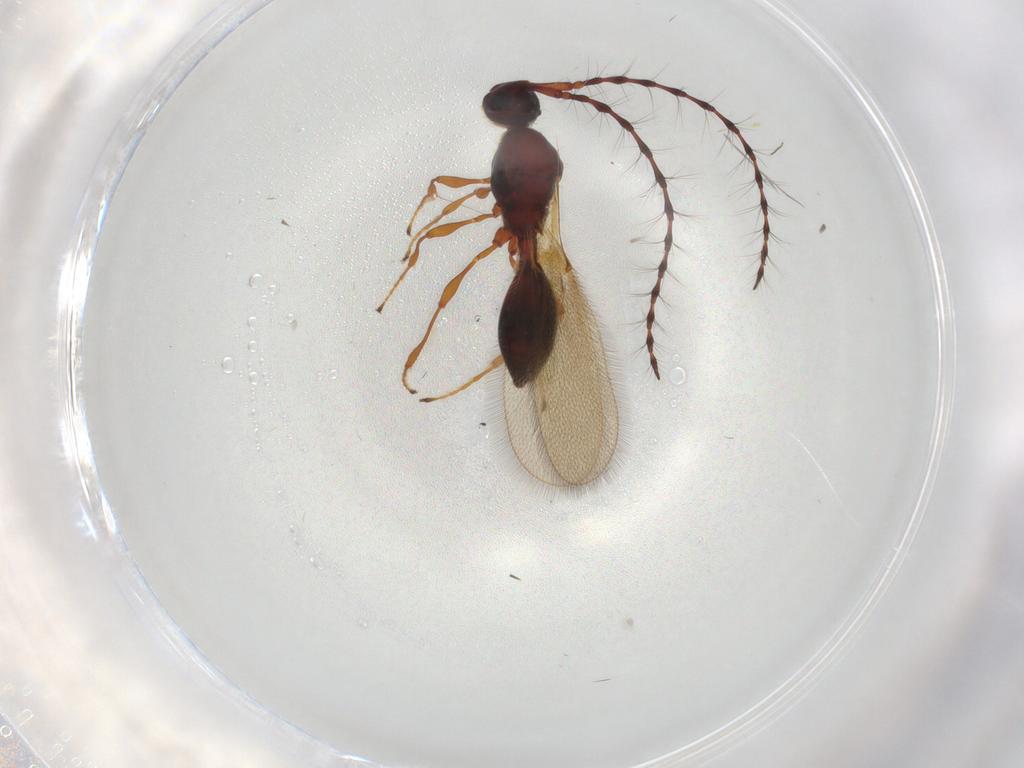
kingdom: Animalia
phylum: Arthropoda
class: Insecta
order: Hymenoptera
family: Diapriidae
